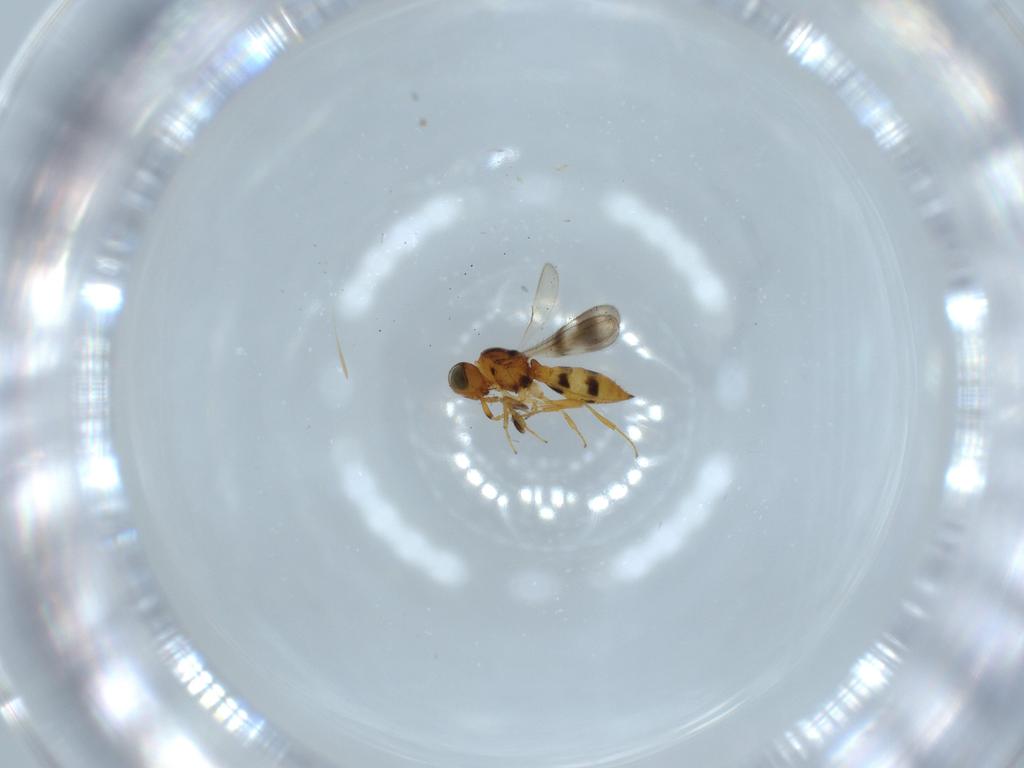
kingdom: Animalia
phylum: Arthropoda
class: Insecta
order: Hymenoptera
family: Scelionidae
